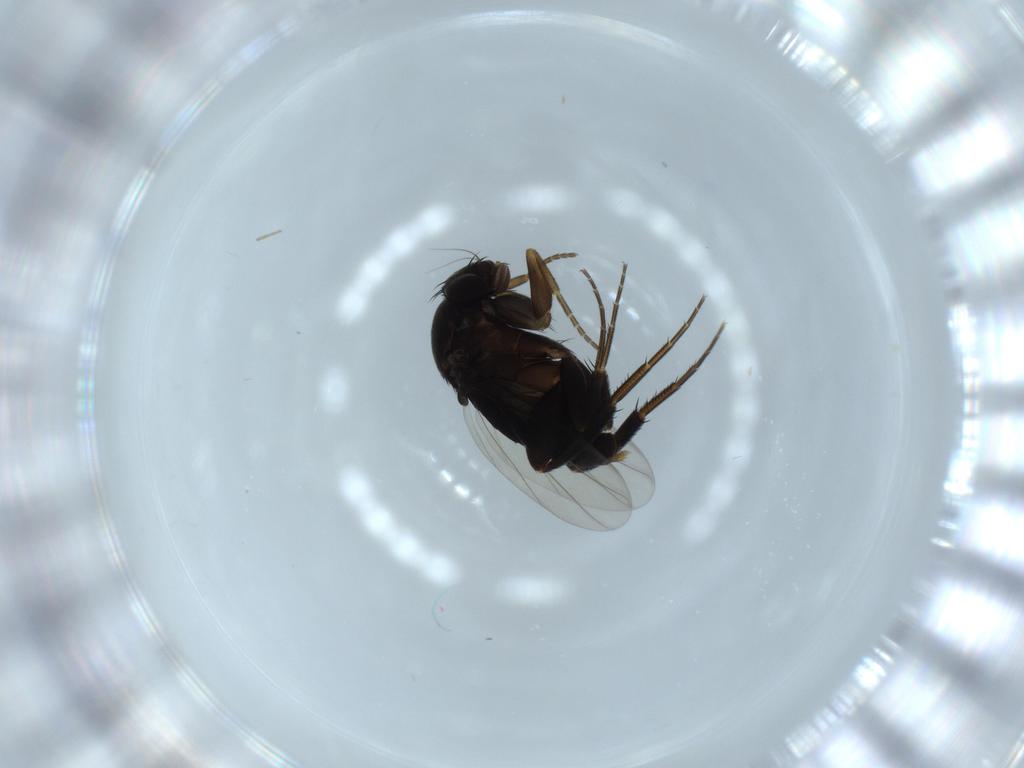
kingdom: Animalia
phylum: Arthropoda
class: Insecta
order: Diptera
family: Phoridae
